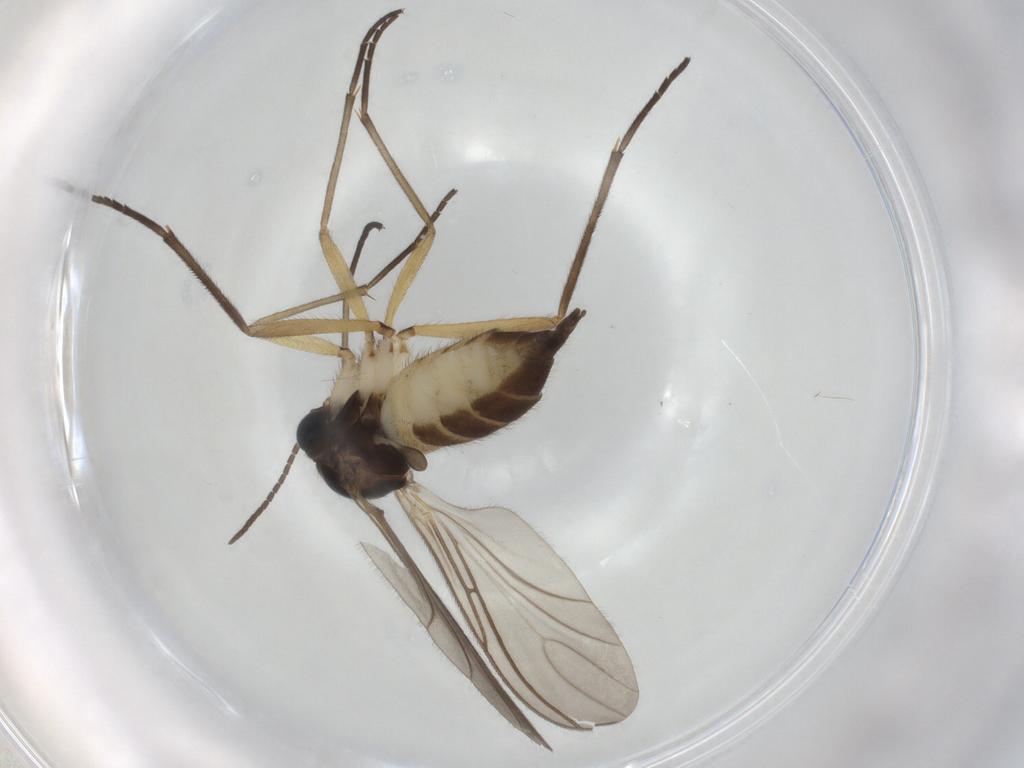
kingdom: Animalia
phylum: Arthropoda
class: Insecta
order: Diptera
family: Sciaridae
